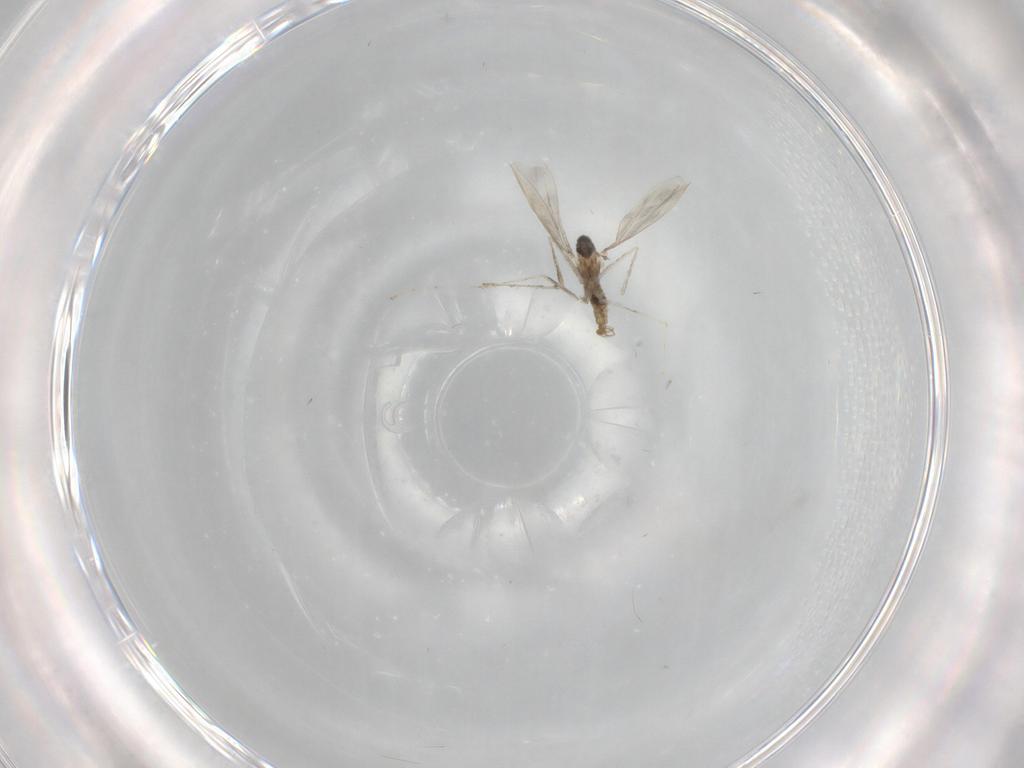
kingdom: Animalia
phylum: Arthropoda
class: Insecta
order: Diptera
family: Cecidomyiidae
